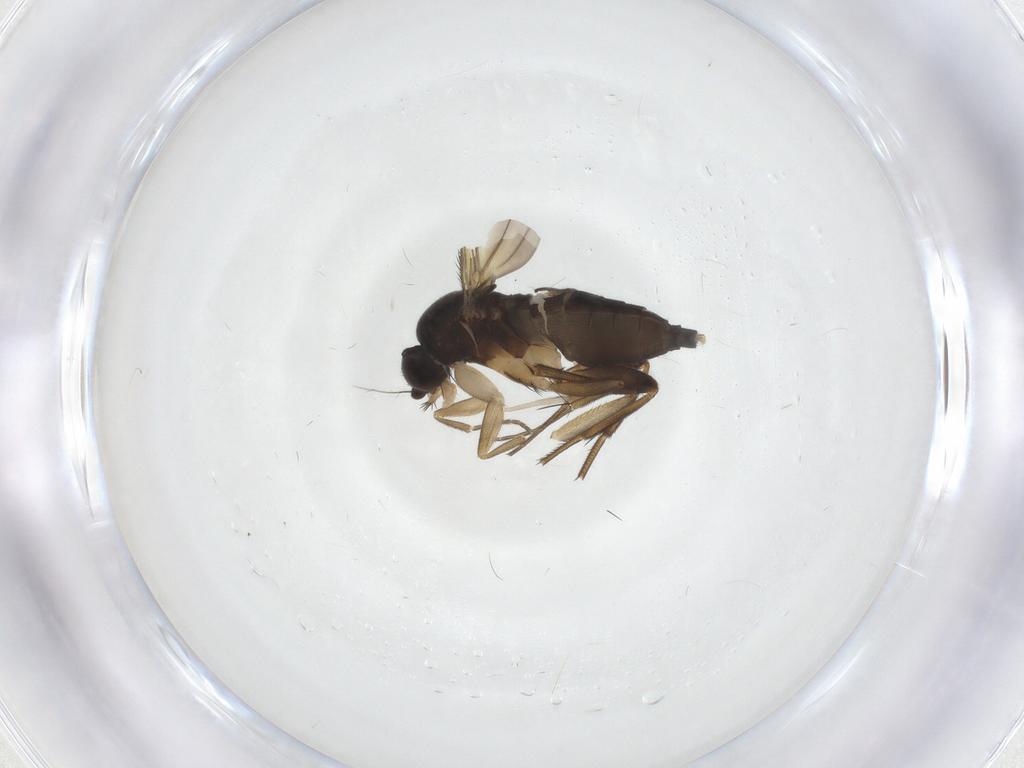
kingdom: Animalia
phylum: Arthropoda
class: Insecta
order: Diptera
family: Phoridae
